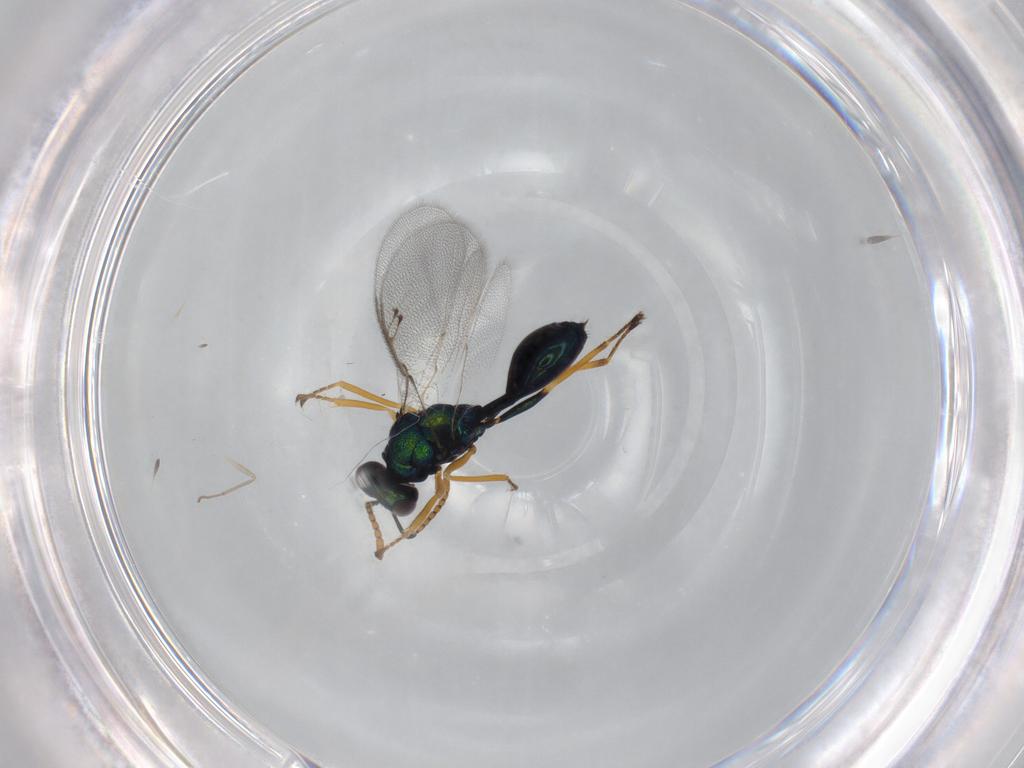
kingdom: Animalia
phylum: Arthropoda
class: Insecta
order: Hymenoptera
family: Pteromalidae
